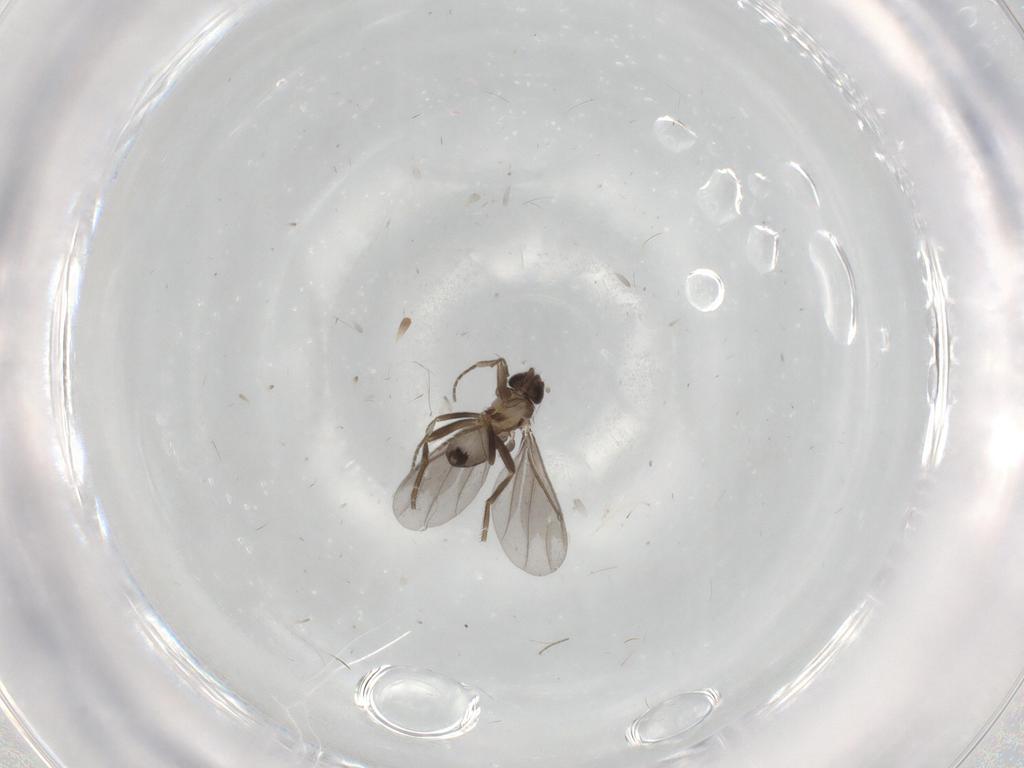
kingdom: Animalia
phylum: Arthropoda
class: Insecta
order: Diptera
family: Cecidomyiidae
